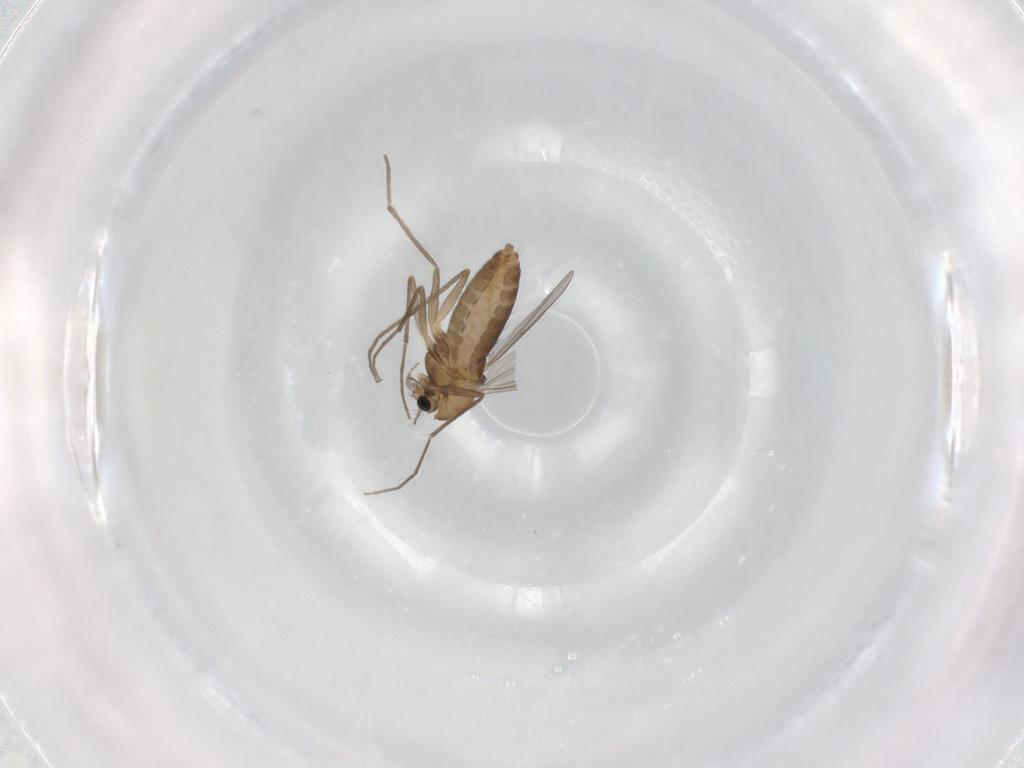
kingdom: Animalia
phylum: Arthropoda
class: Insecta
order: Diptera
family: Chironomidae
